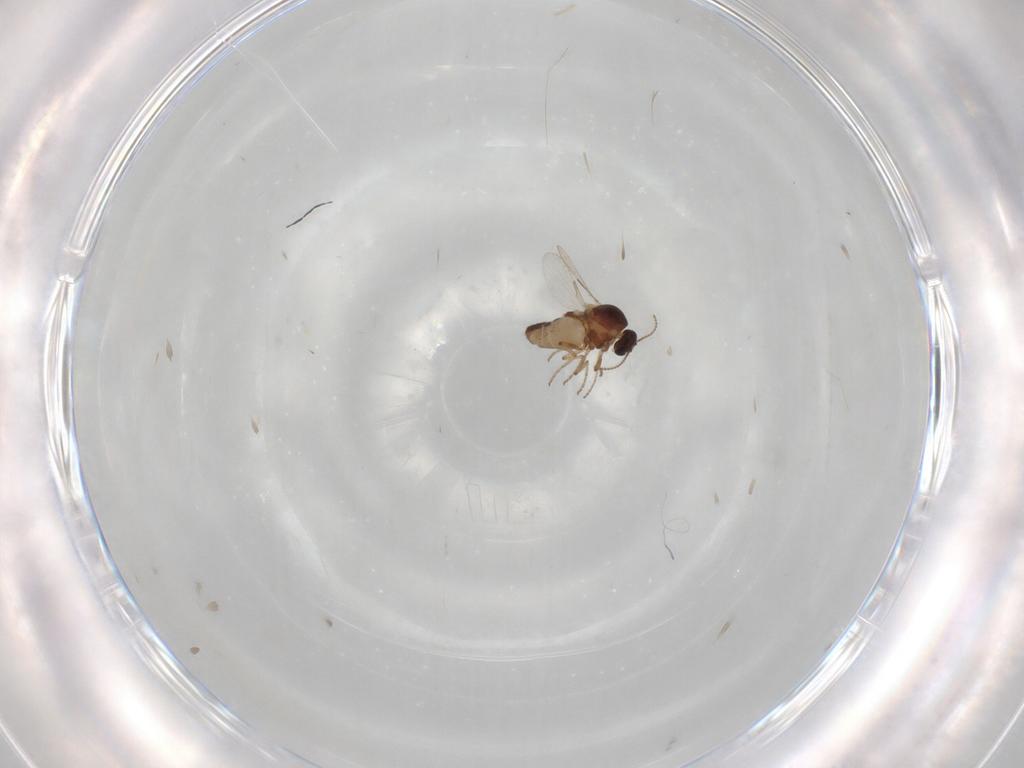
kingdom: Animalia
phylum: Arthropoda
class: Insecta
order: Diptera
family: Ceratopogonidae
